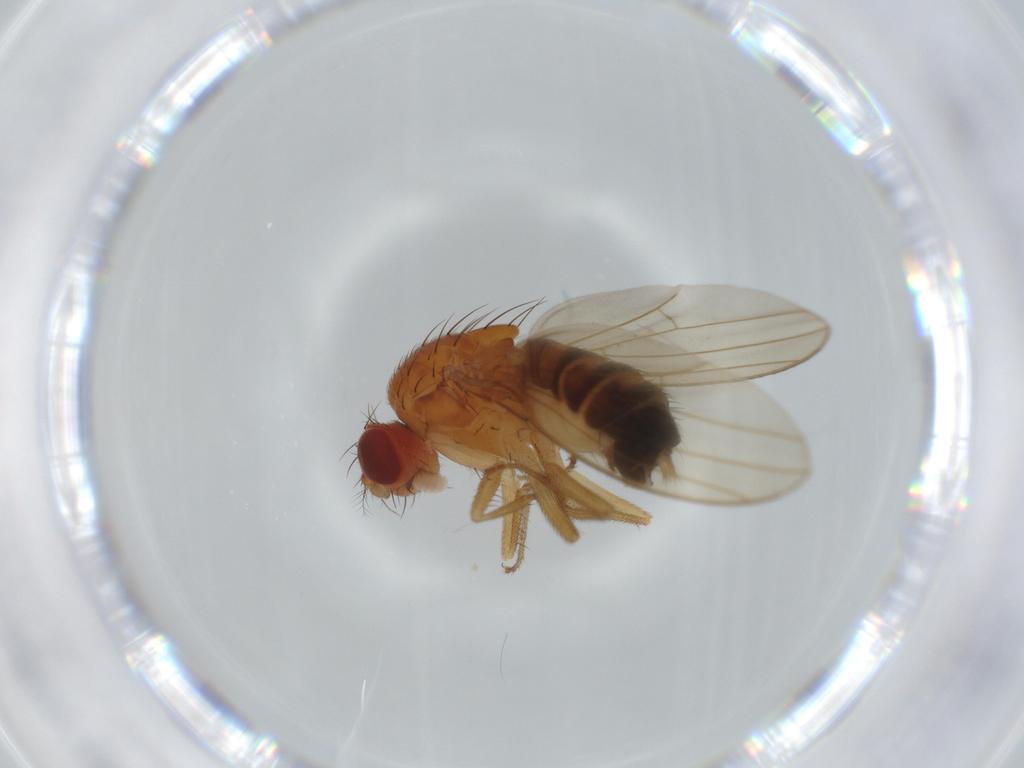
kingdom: Animalia
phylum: Arthropoda
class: Insecta
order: Diptera
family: Drosophilidae
